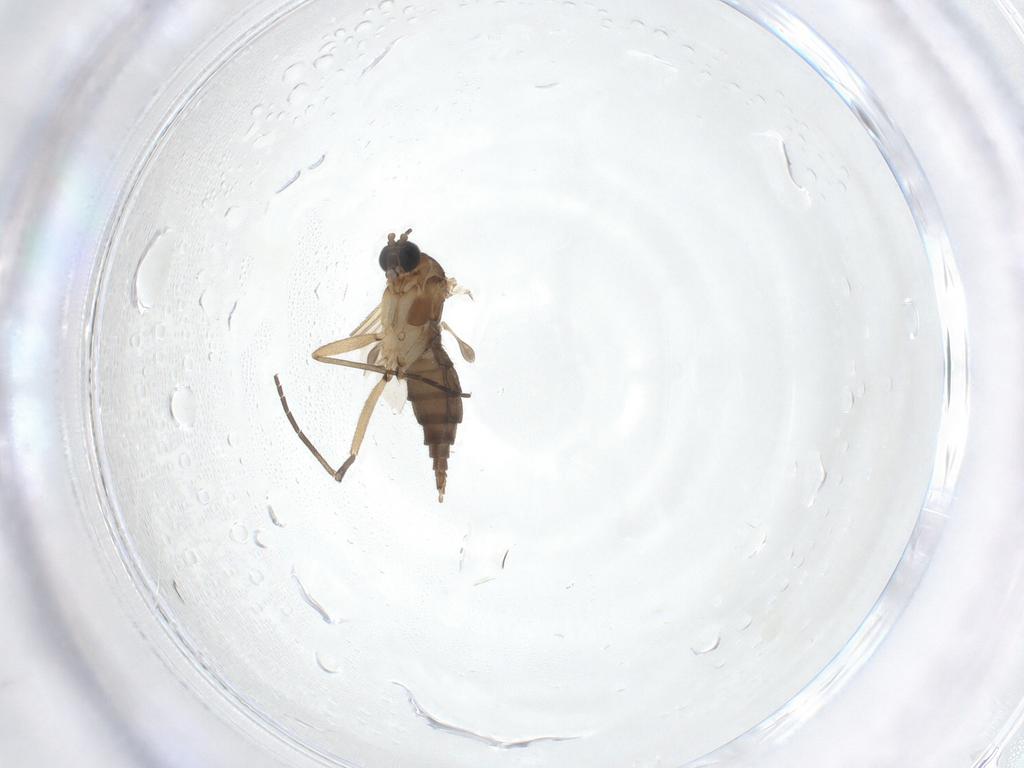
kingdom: Animalia
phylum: Arthropoda
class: Insecta
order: Diptera
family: Sciaridae
